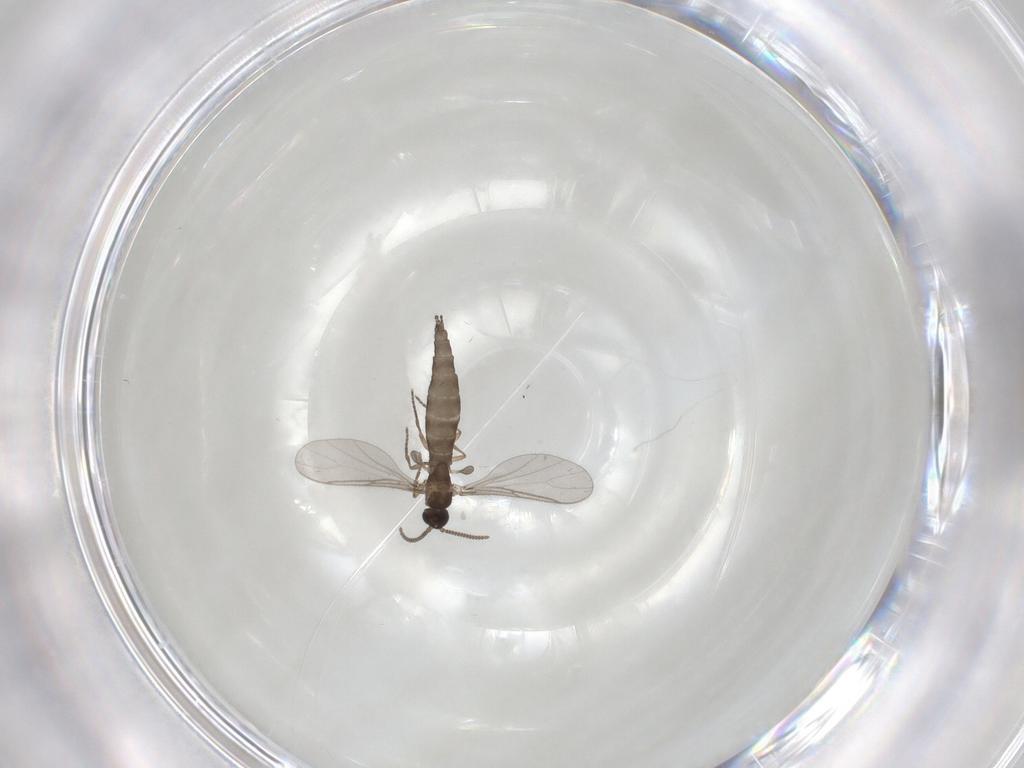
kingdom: Animalia
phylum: Arthropoda
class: Insecta
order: Diptera
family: Sciaridae
